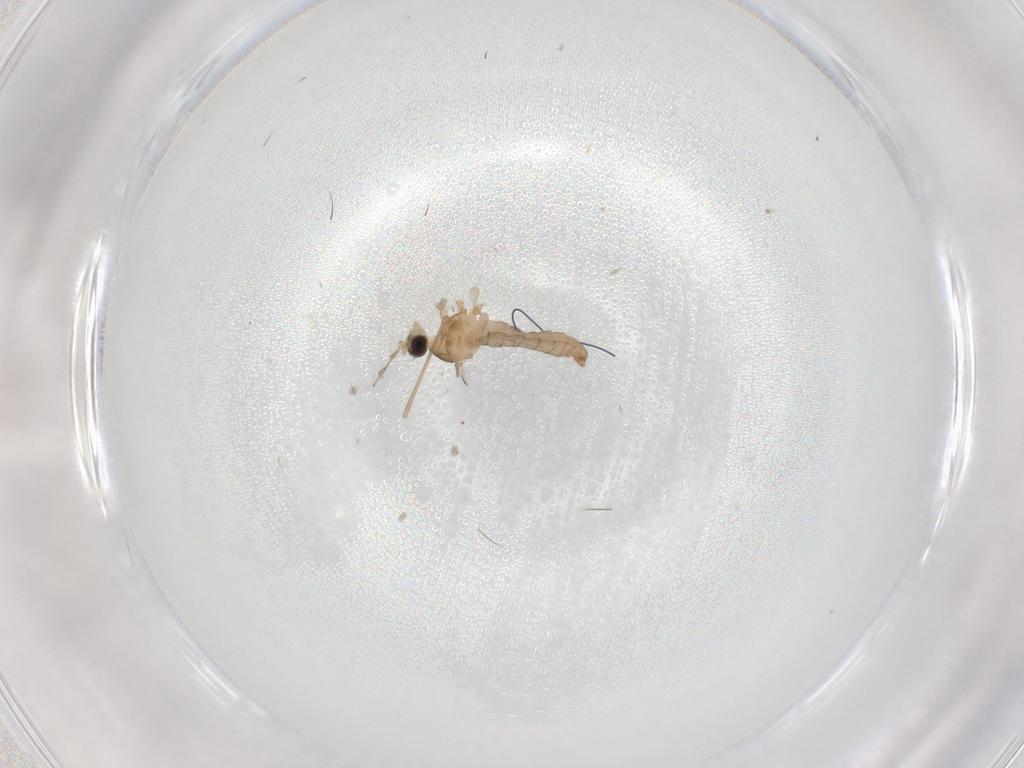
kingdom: Animalia
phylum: Arthropoda
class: Insecta
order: Diptera
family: Cecidomyiidae
